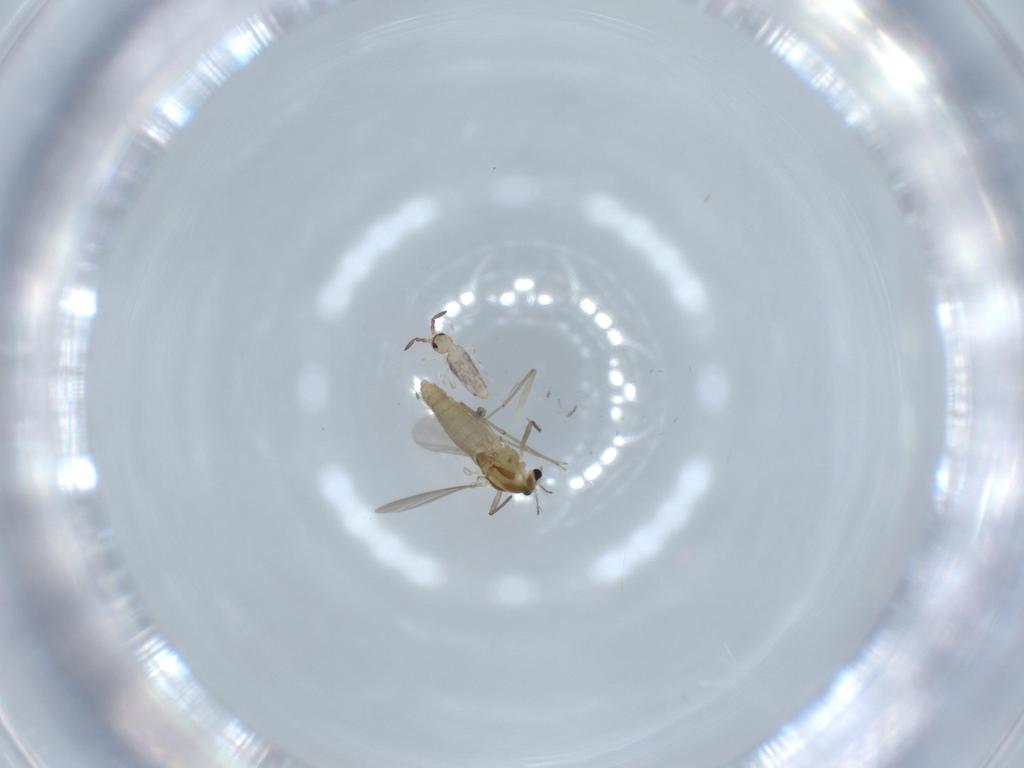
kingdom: Animalia
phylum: Arthropoda
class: Insecta
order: Diptera
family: Chironomidae
